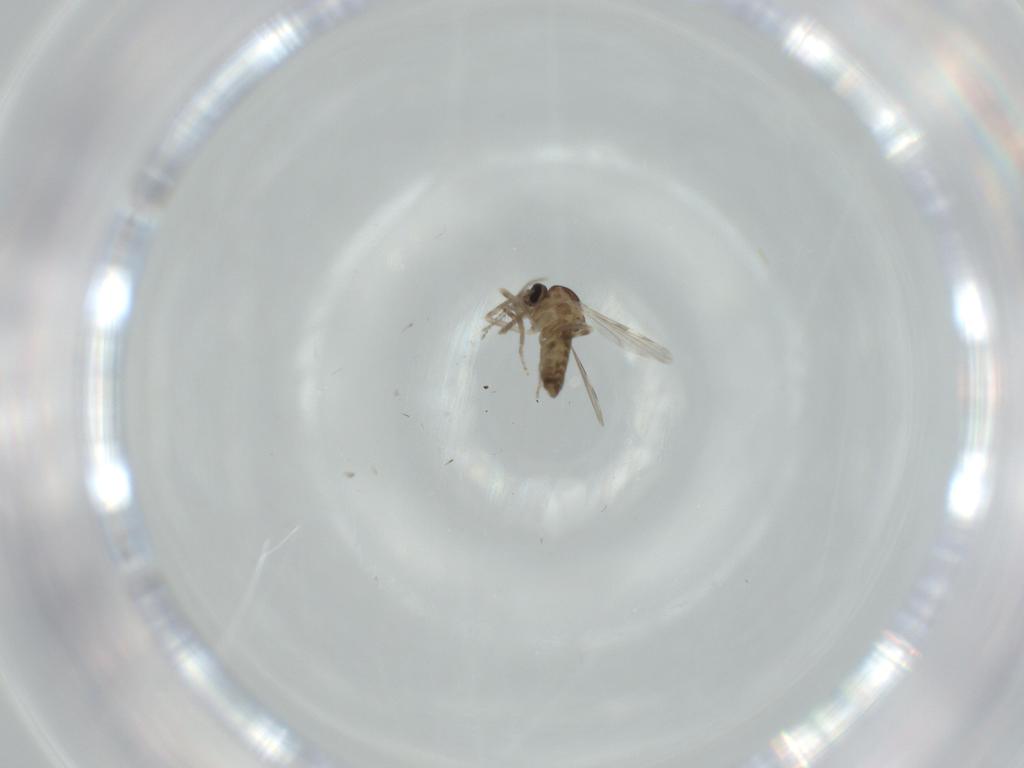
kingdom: Animalia
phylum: Arthropoda
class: Insecta
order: Diptera
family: Ceratopogonidae
